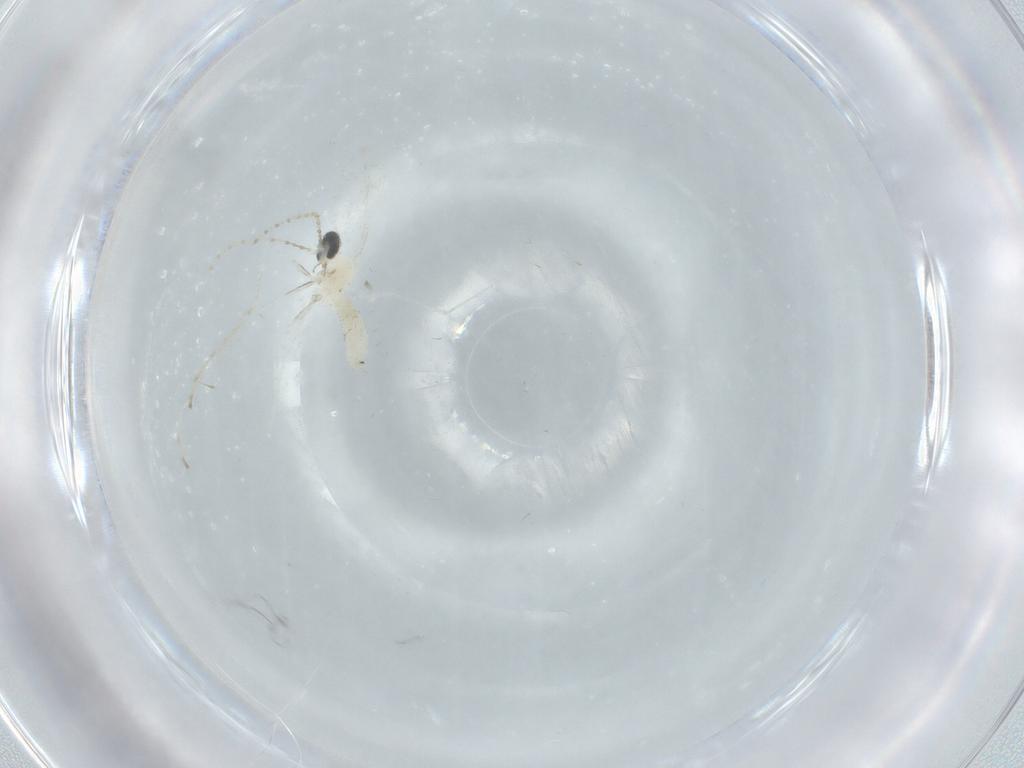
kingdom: Animalia
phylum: Arthropoda
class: Insecta
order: Diptera
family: Cecidomyiidae
